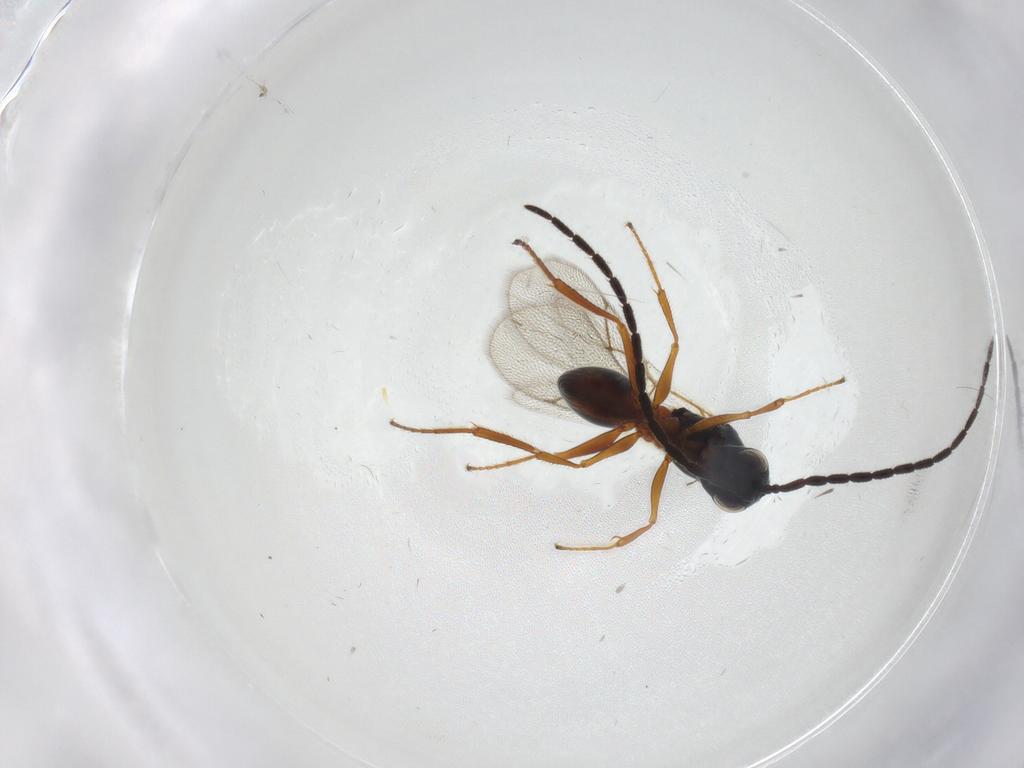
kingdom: Animalia
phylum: Arthropoda
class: Insecta
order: Hymenoptera
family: Figitidae
